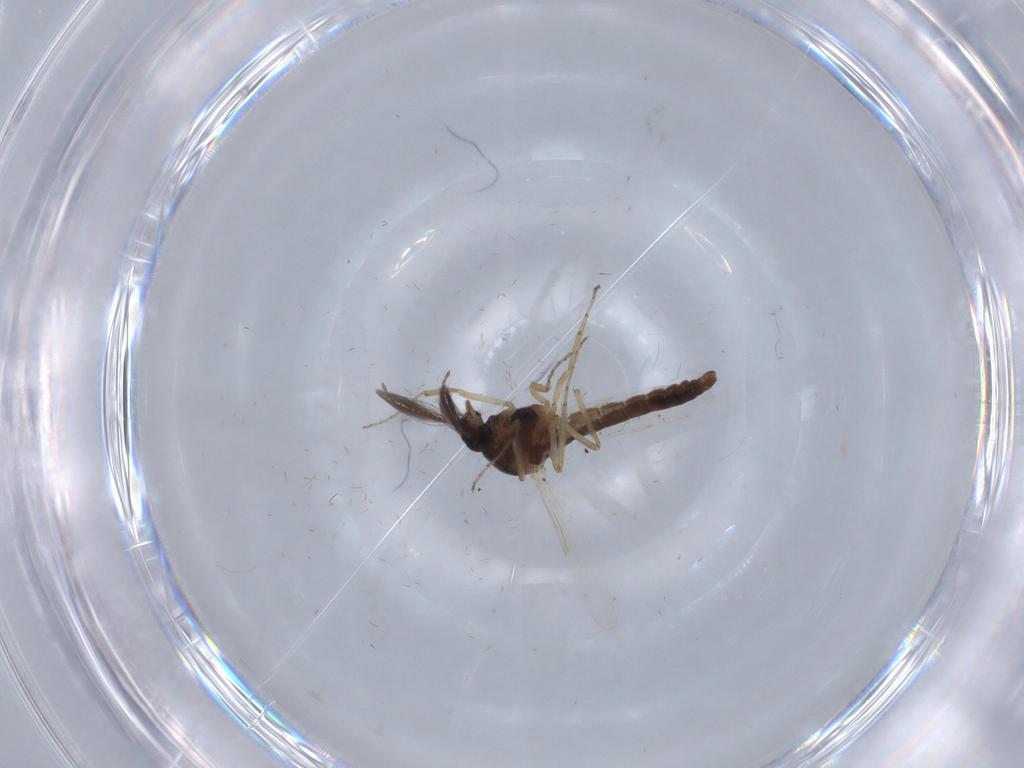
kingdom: Animalia
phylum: Arthropoda
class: Insecta
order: Diptera
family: Ceratopogonidae
